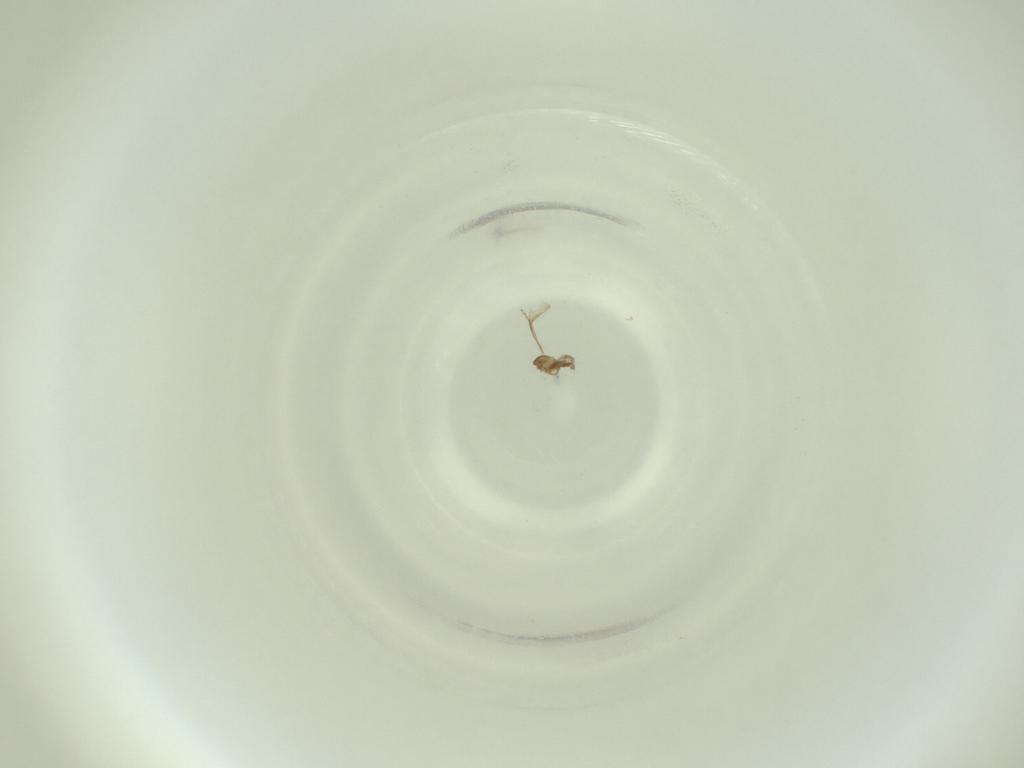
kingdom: Animalia
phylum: Arthropoda
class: Insecta
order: Diptera
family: Cecidomyiidae
